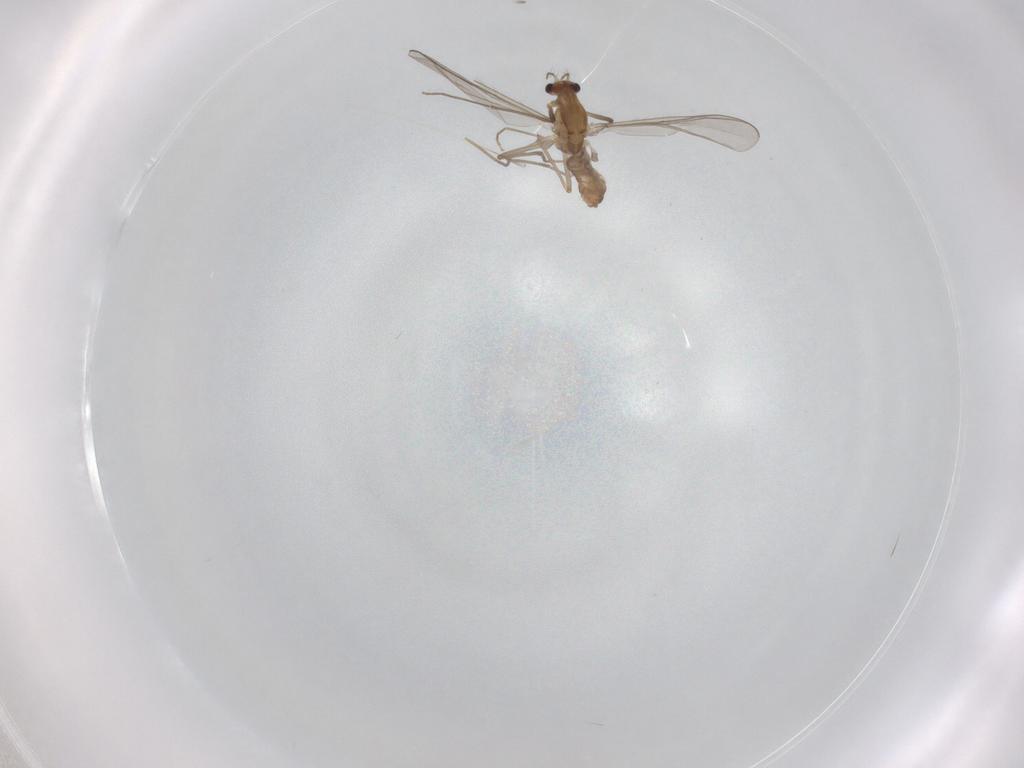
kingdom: Animalia
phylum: Arthropoda
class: Insecta
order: Diptera
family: Chironomidae
